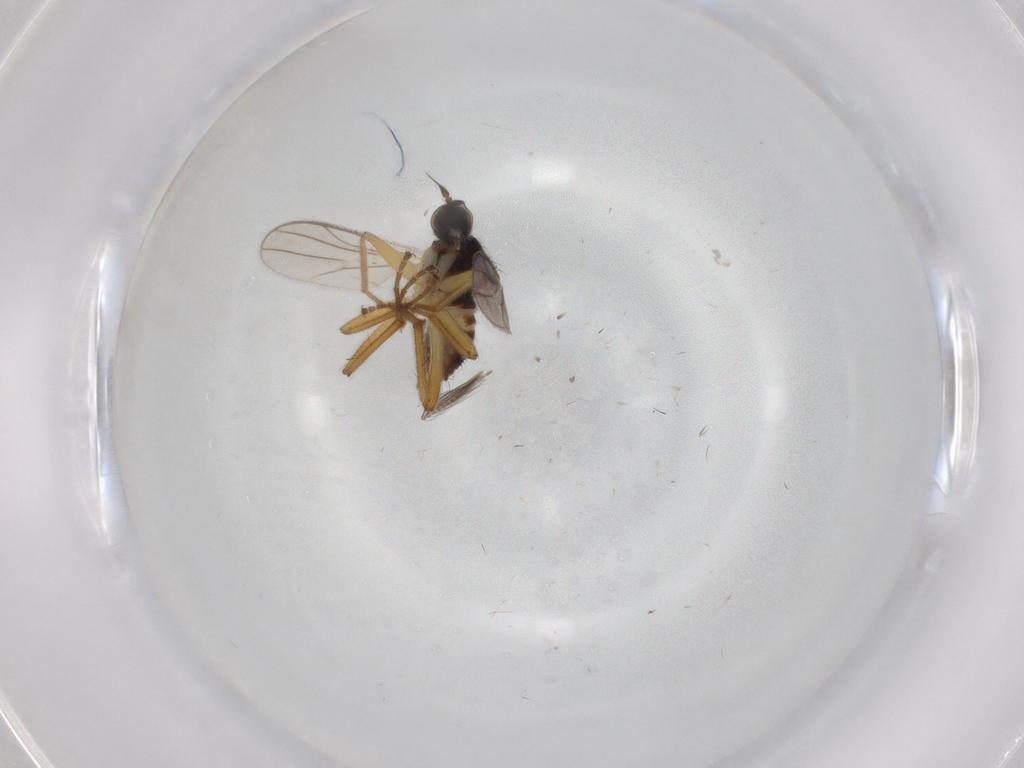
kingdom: Animalia
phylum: Arthropoda
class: Insecta
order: Diptera
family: Hybotidae
